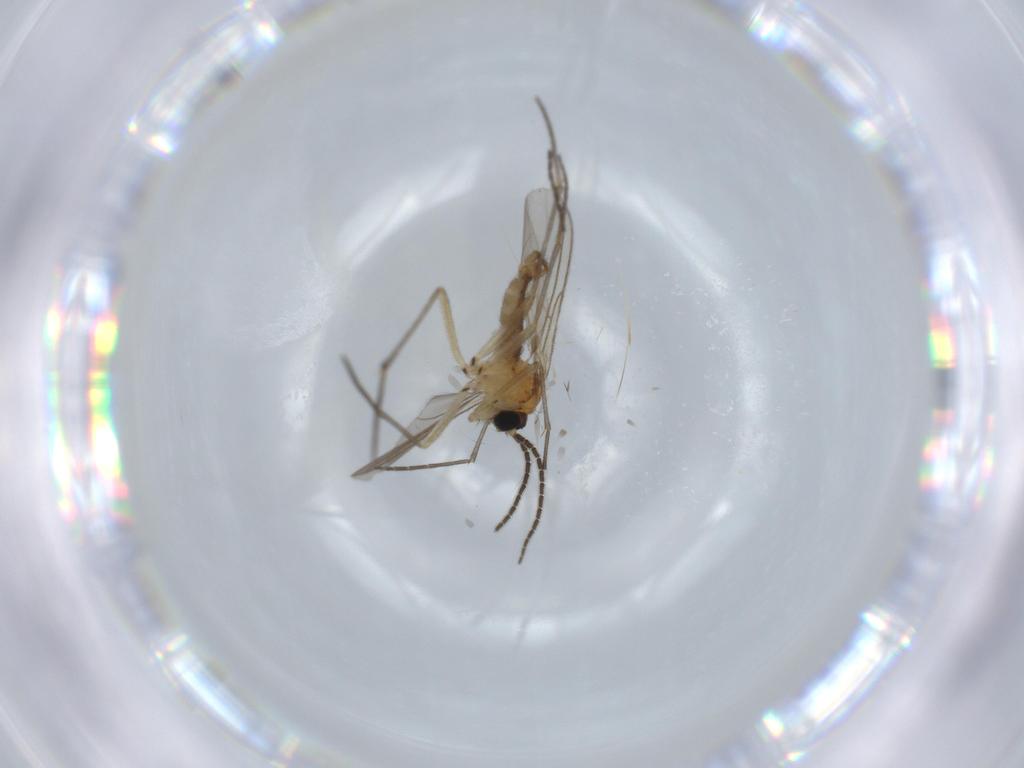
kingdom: Animalia
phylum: Arthropoda
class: Insecta
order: Diptera
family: Sciaridae
